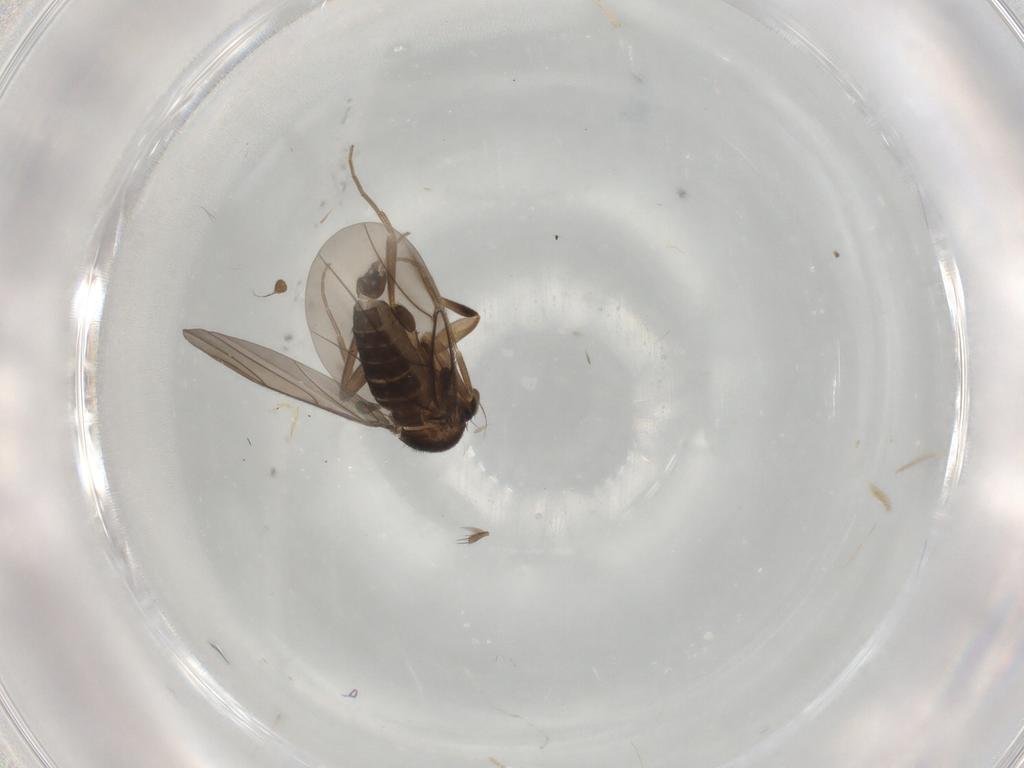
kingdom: Animalia
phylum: Arthropoda
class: Insecta
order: Diptera
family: Phoridae
